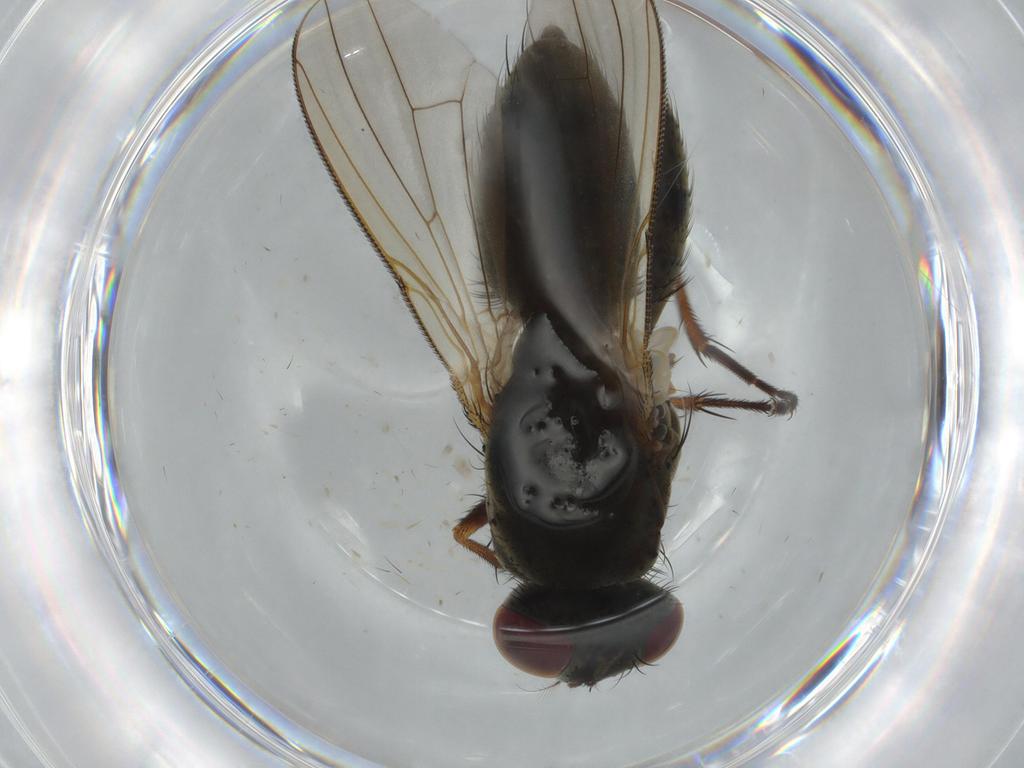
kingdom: Animalia
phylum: Arthropoda
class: Insecta
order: Diptera
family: Muscidae
